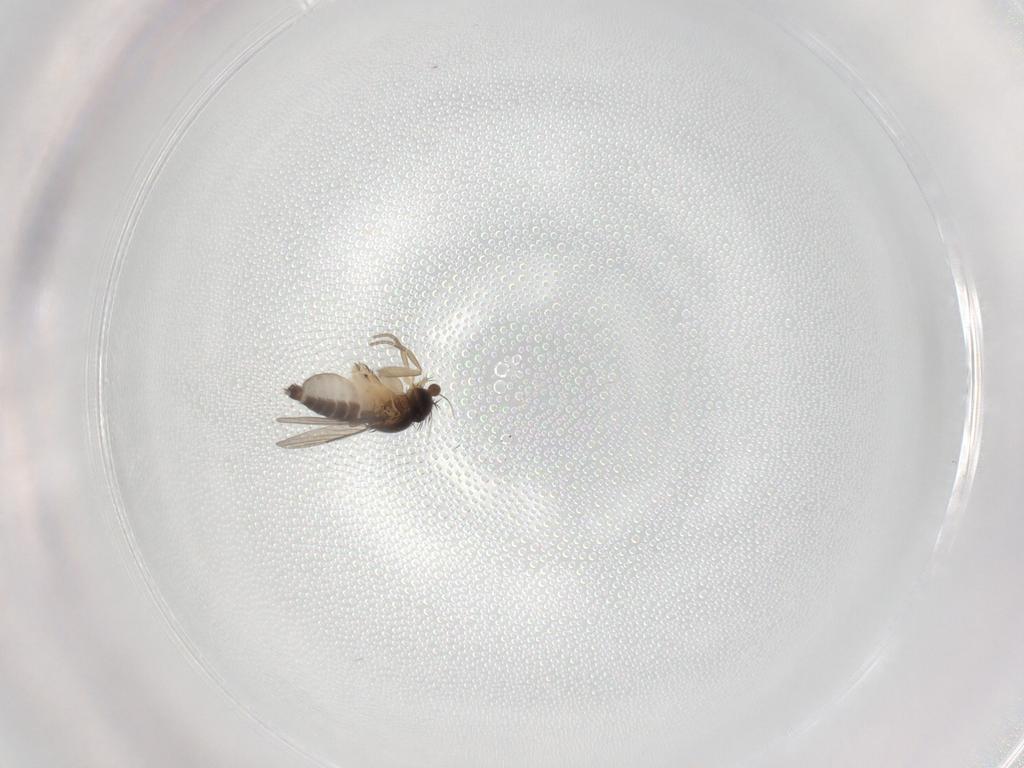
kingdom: Animalia
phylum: Arthropoda
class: Insecta
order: Diptera
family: Phoridae
